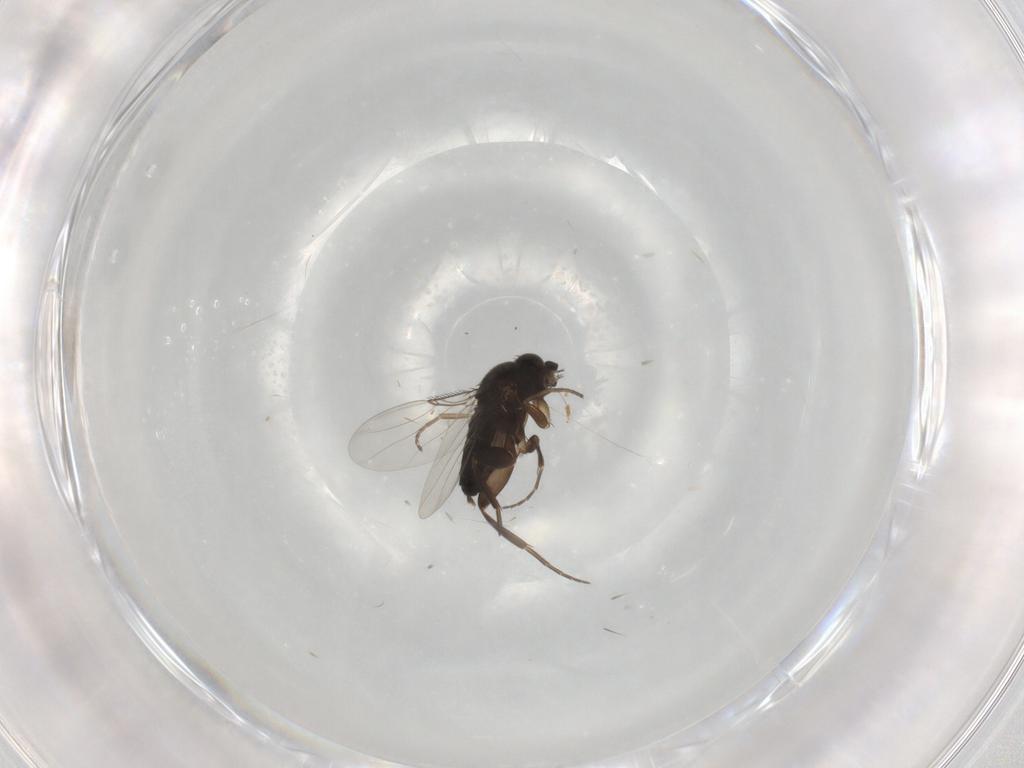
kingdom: Animalia
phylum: Arthropoda
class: Insecta
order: Diptera
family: Phoridae
